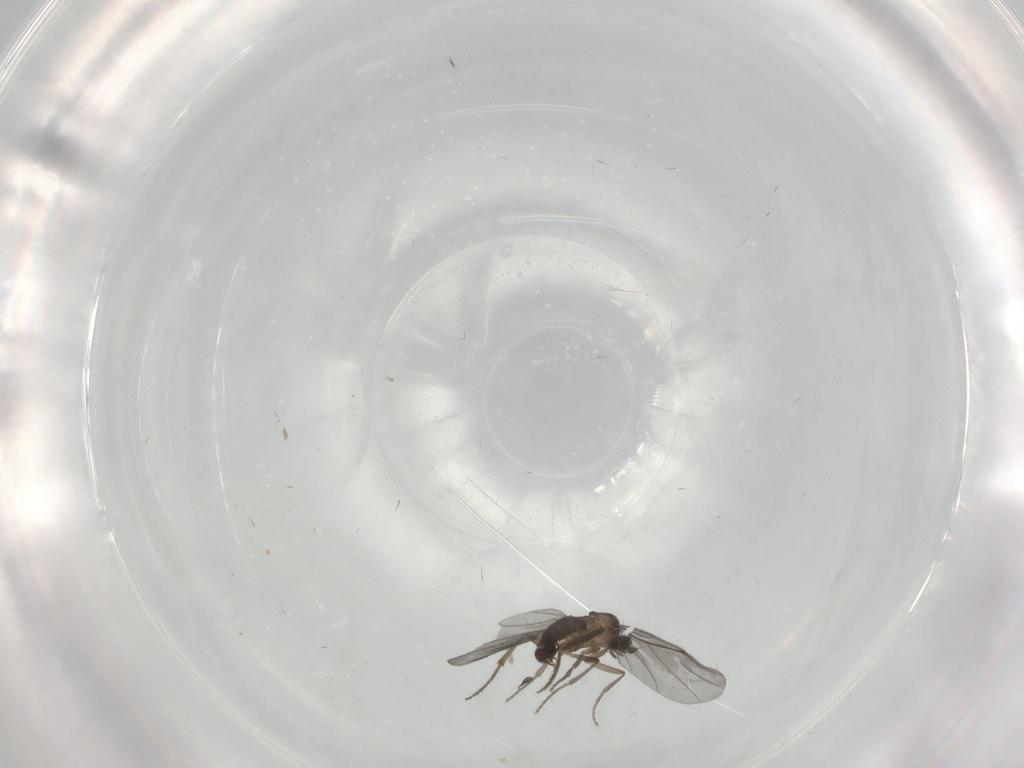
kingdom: Animalia
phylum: Arthropoda
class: Insecta
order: Diptera
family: Phoridae
